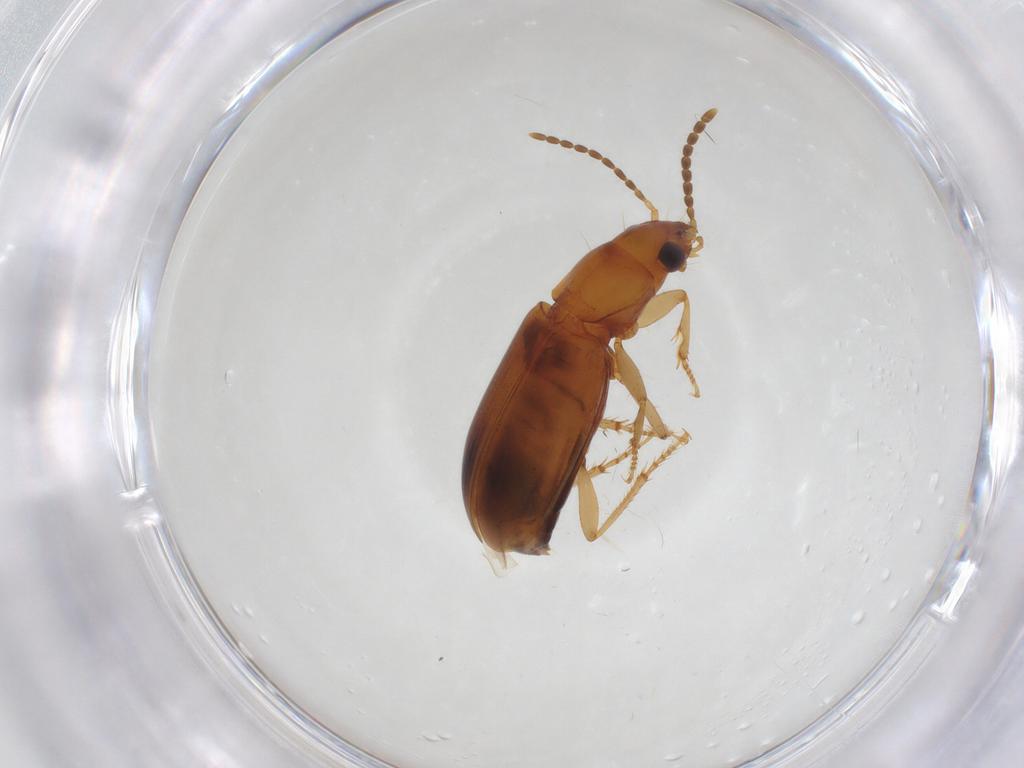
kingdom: Animalia
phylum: Arthropoda
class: Insecta
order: Coleoptera
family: Carabidae
